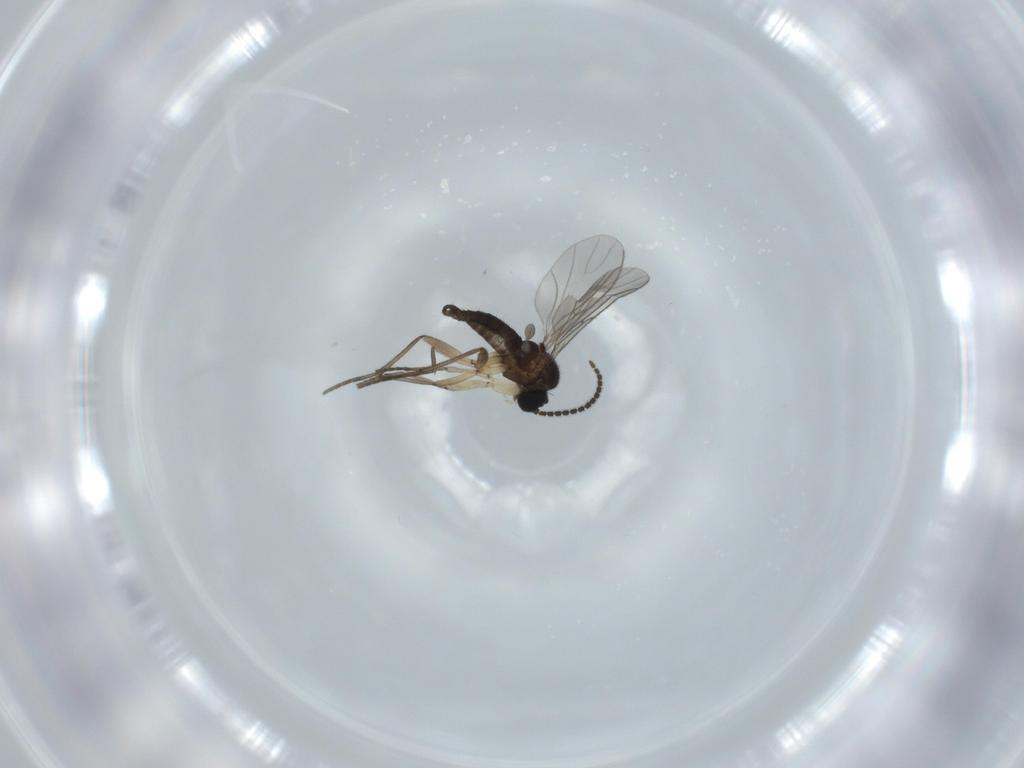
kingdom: Animalia
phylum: Arthropoda
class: Insecta
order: Diptera
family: Sciaridae
